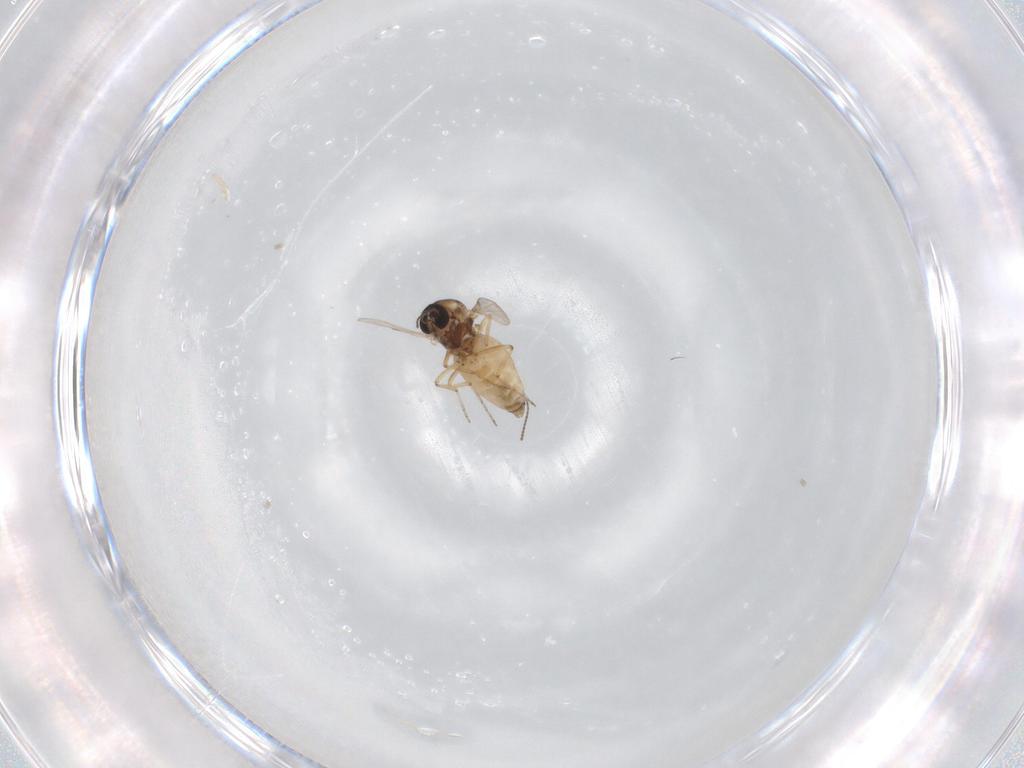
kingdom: Animalia
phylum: Arthropoda
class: Insecta
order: Diptera
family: Ceratopogonidae
